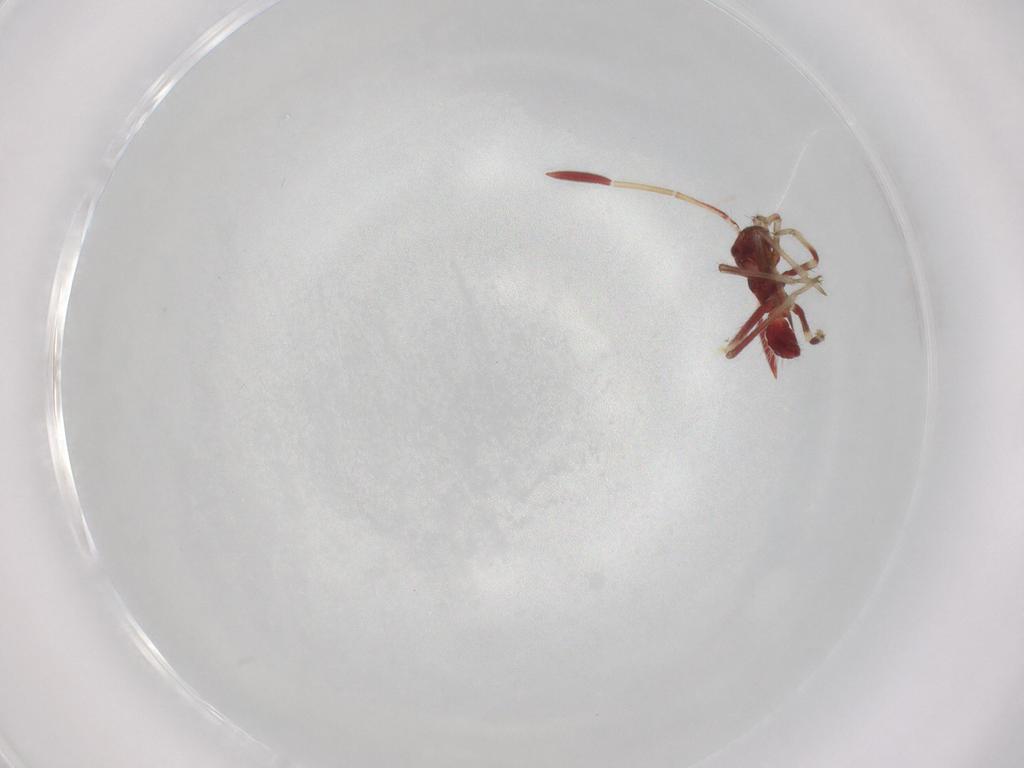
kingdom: Animalia
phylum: Arthropoda
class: Insecta
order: Hemiptera
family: Miridae
